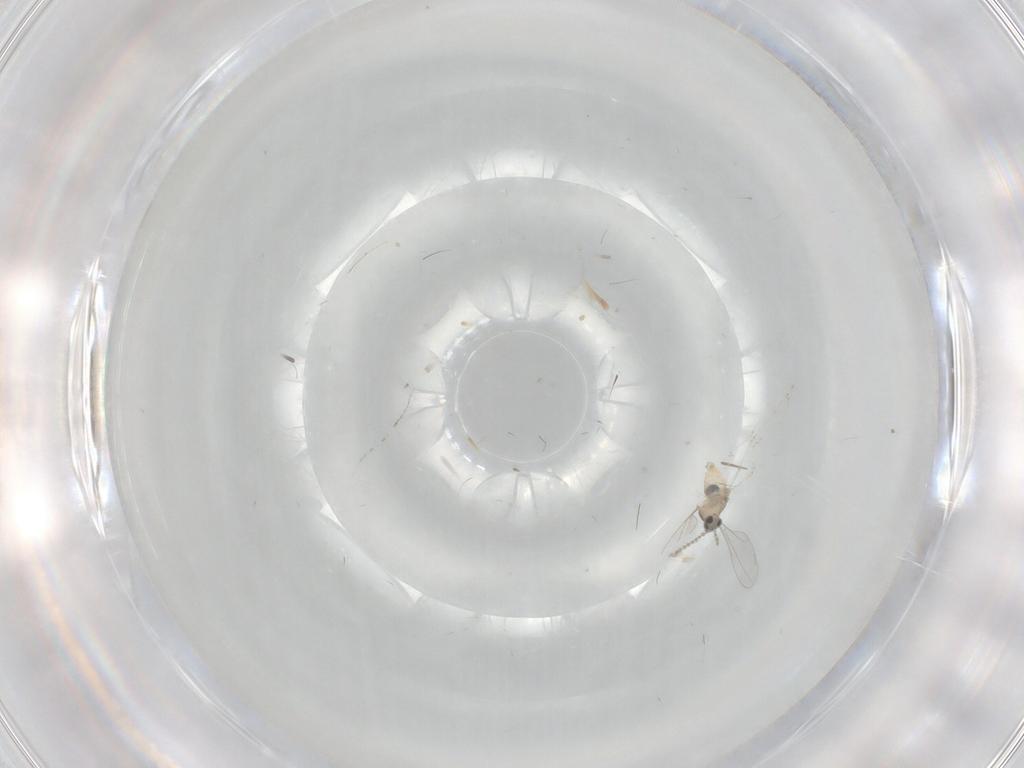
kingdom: Animalia
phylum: Arthropoda
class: Insecta
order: Diptera
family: Cecidomyiidae
